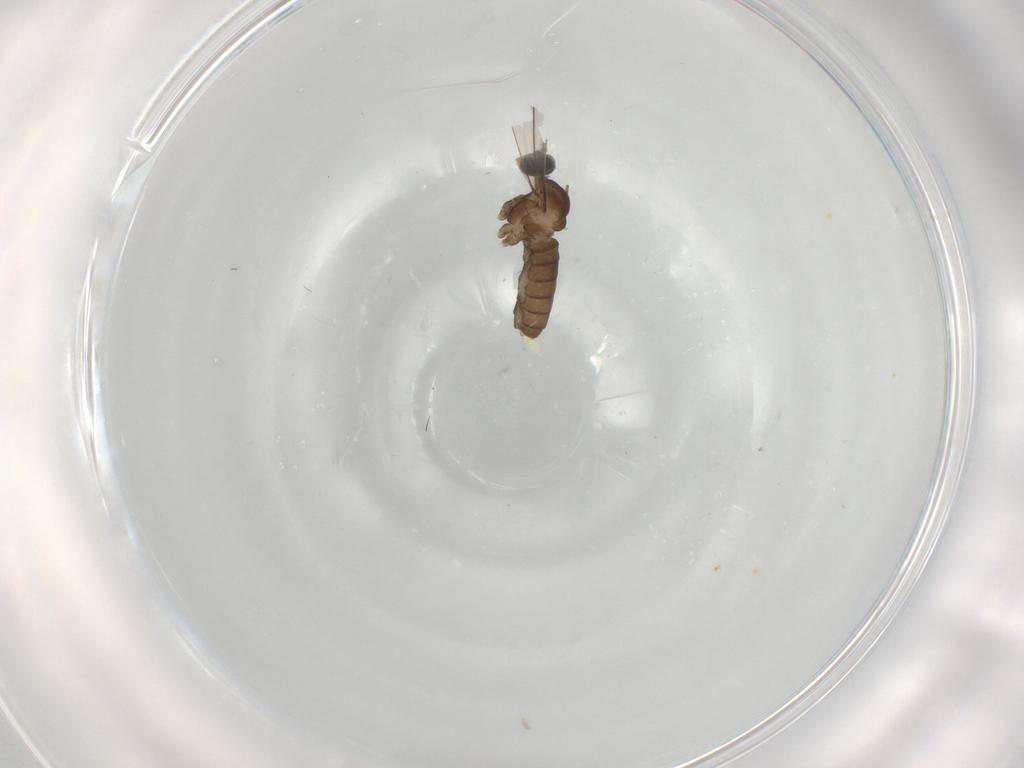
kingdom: Animalia
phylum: Arthropoda
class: Insecta
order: Diptera
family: Cecidomyiidae
